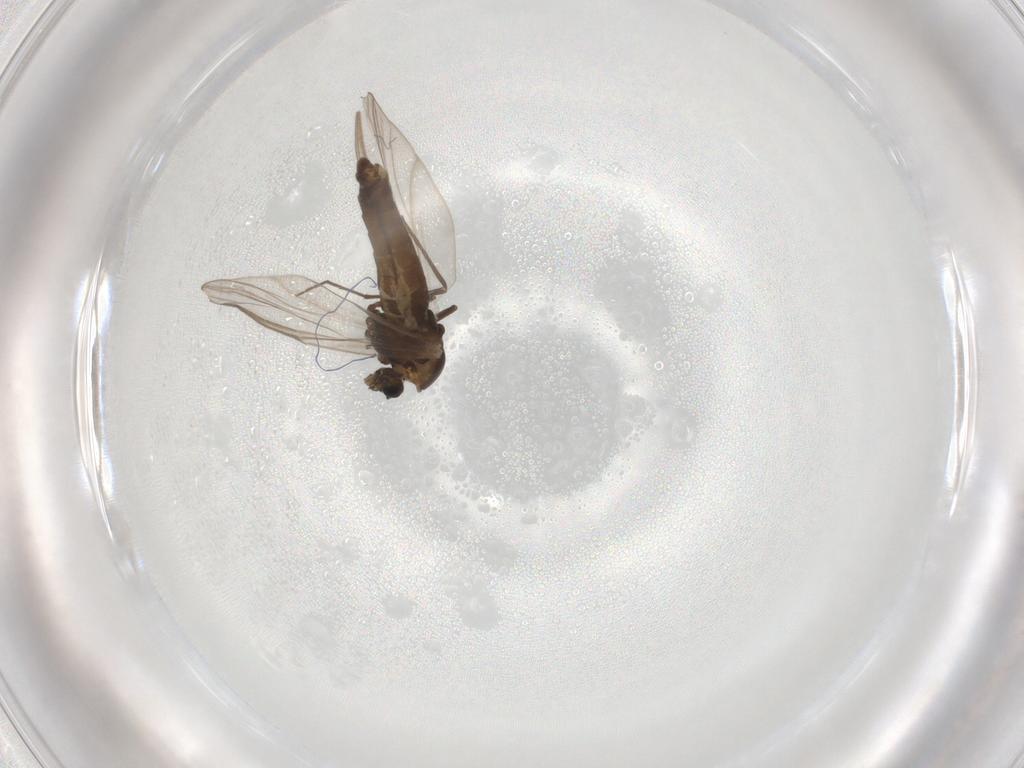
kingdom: Animalia
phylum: Arthropoda
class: Insecta
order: Diptera
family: Chironomidae
